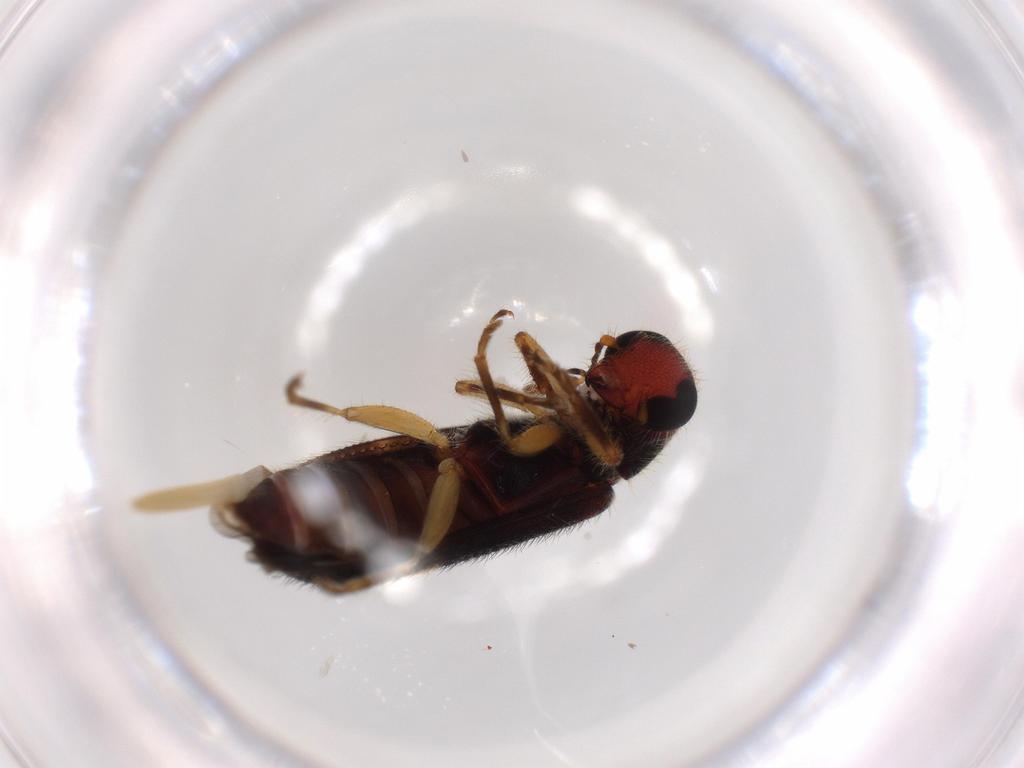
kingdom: Animalia
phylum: Arthropoda
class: Insecta
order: Coleoptera
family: Cleridae
